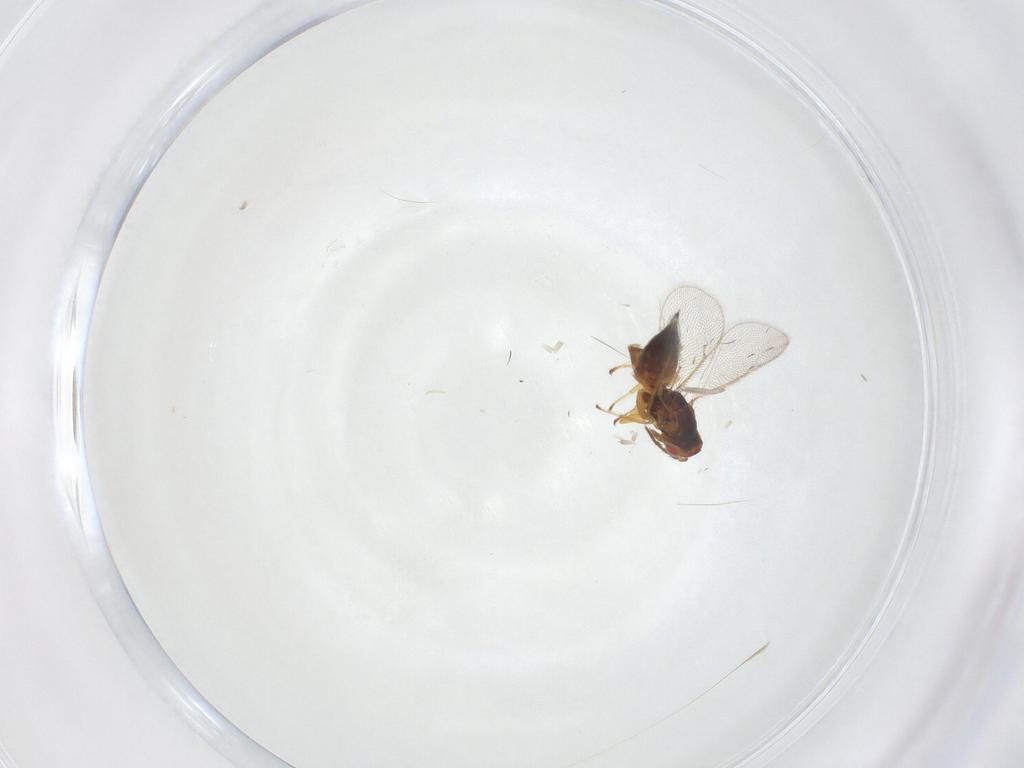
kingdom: Animalia
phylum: Arthropoda
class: Insecta
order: Hymenoptera
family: Eulophidae
